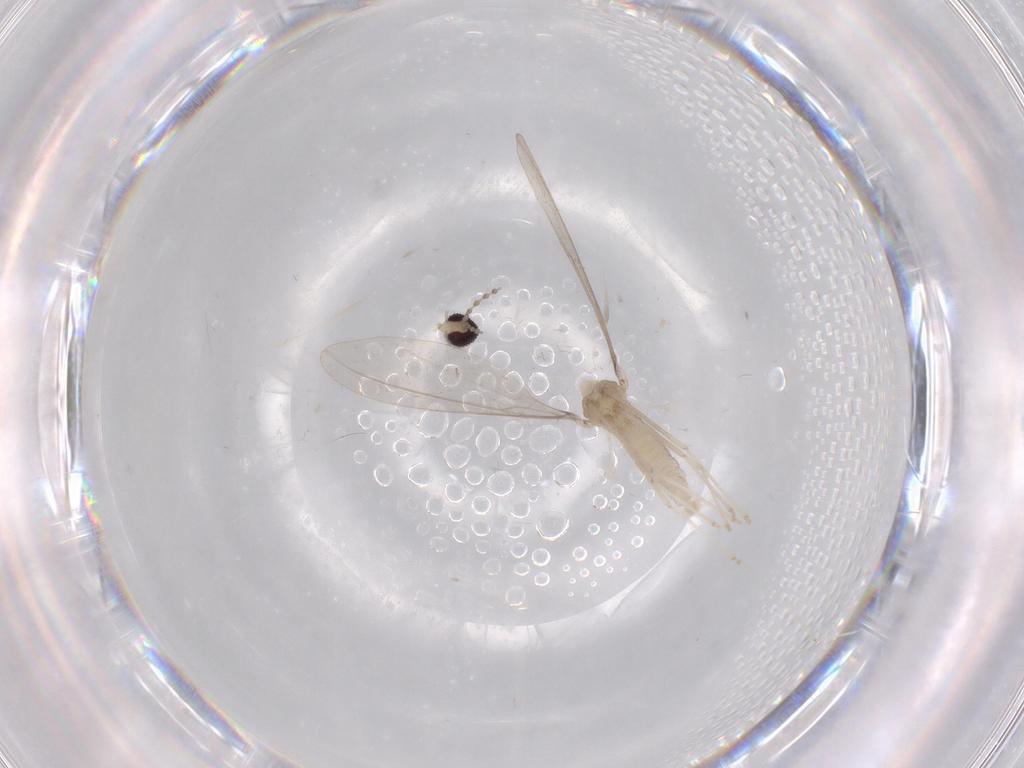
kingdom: Animalia
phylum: Arthropoda
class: Insecta
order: Diptera
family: Cecidomyiidae
